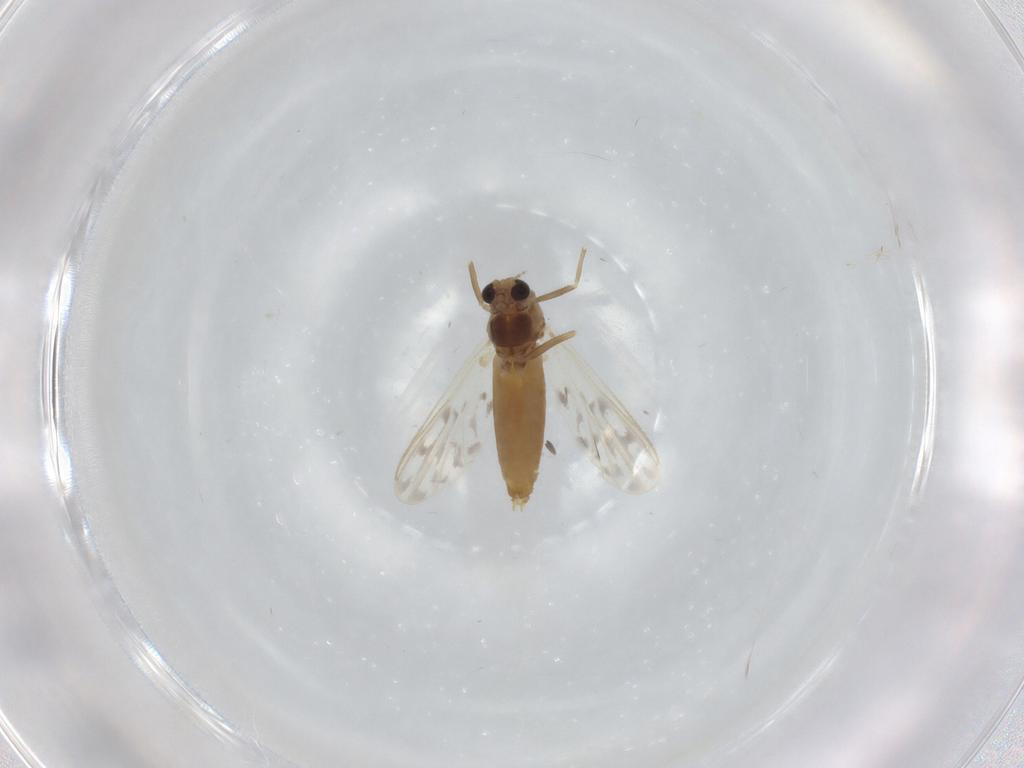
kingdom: Animalia
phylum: Arthropoda
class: Insecta
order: Diptera
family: Chironomidae
